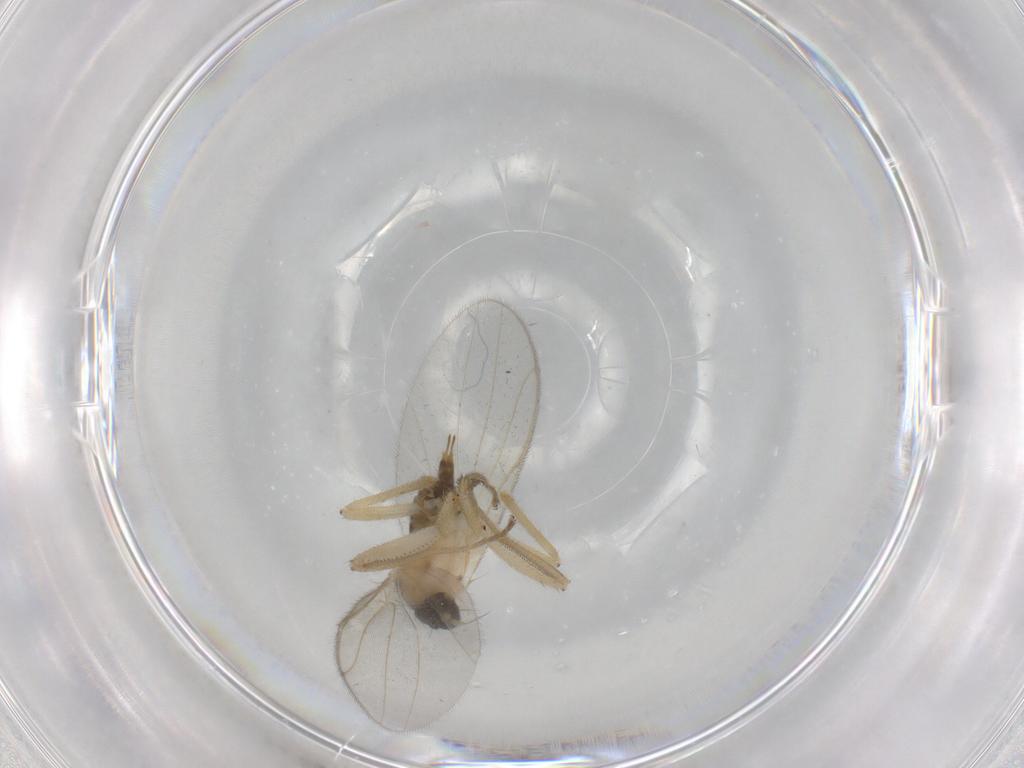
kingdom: Animalia
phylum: Arthropoda
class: Insecta
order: Diptera
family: Chironomidae
